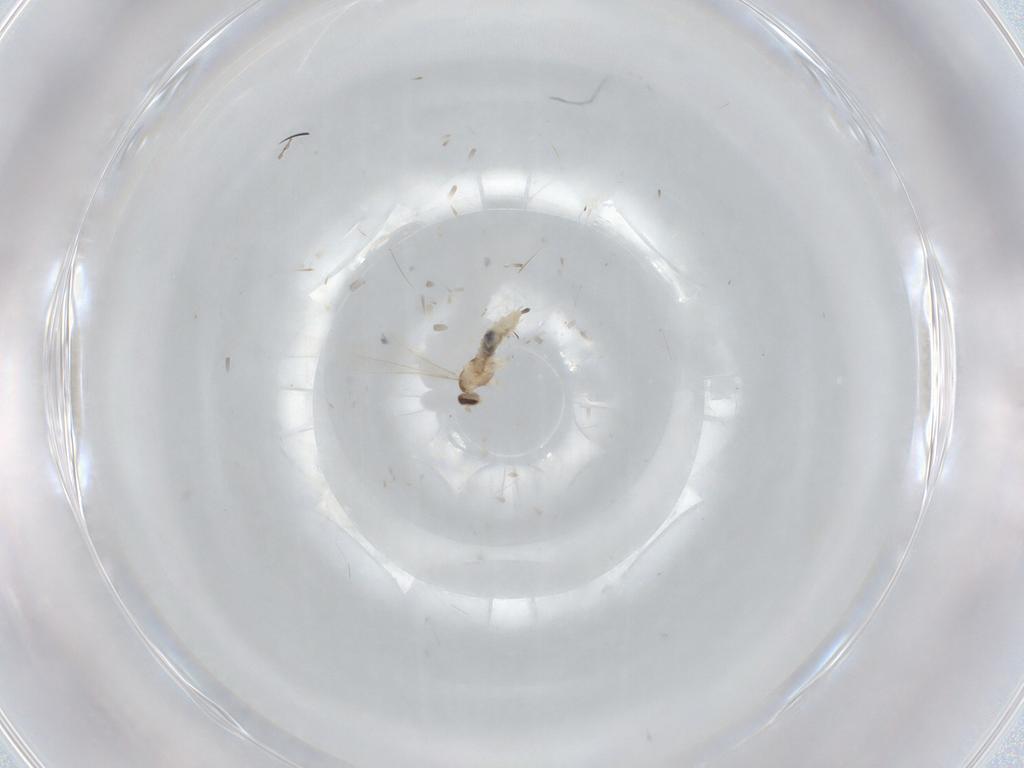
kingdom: Animalia
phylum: Arthropoda
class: Insecta
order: Diptera
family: Cecidomyiidae
